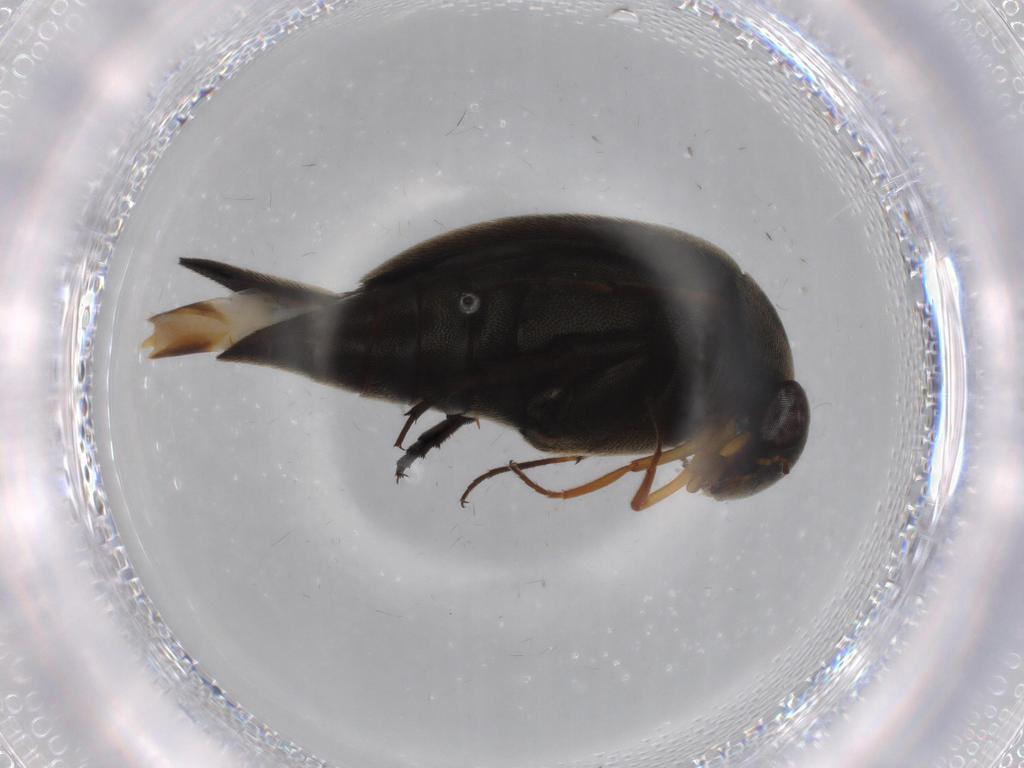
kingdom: Animalia
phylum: Arthropoda
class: Insecta
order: Coleoptera
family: Mordellidae
